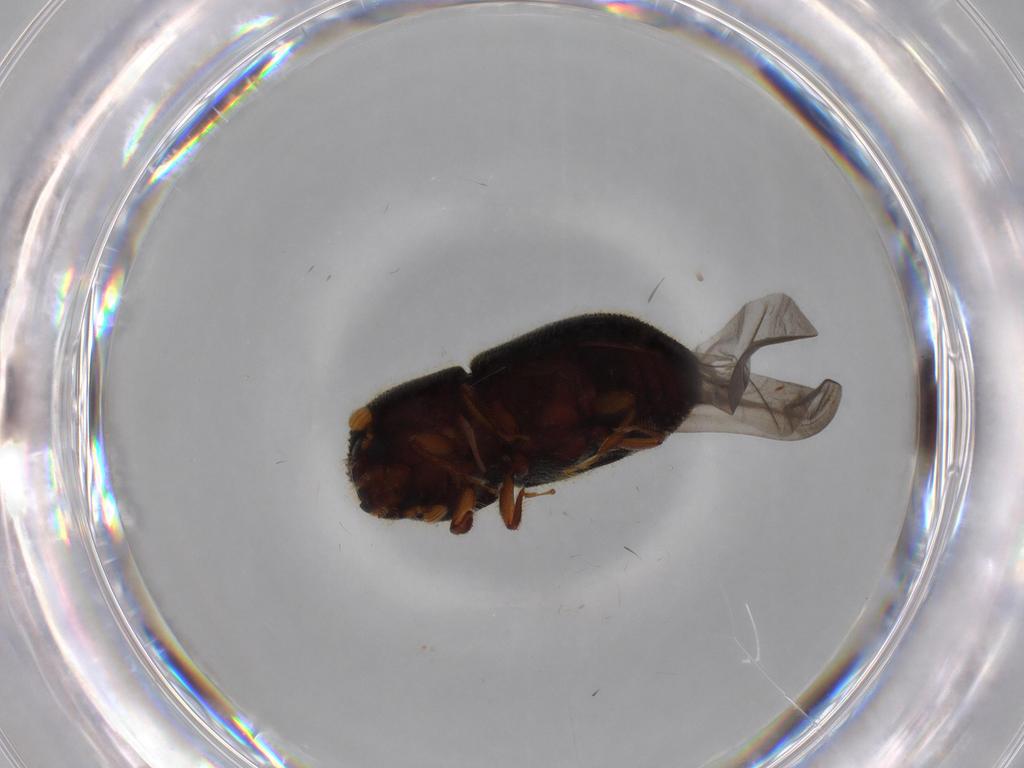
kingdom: Animalia
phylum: Arthropoda
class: Insecta
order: Coleoptera
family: Curculionidae
